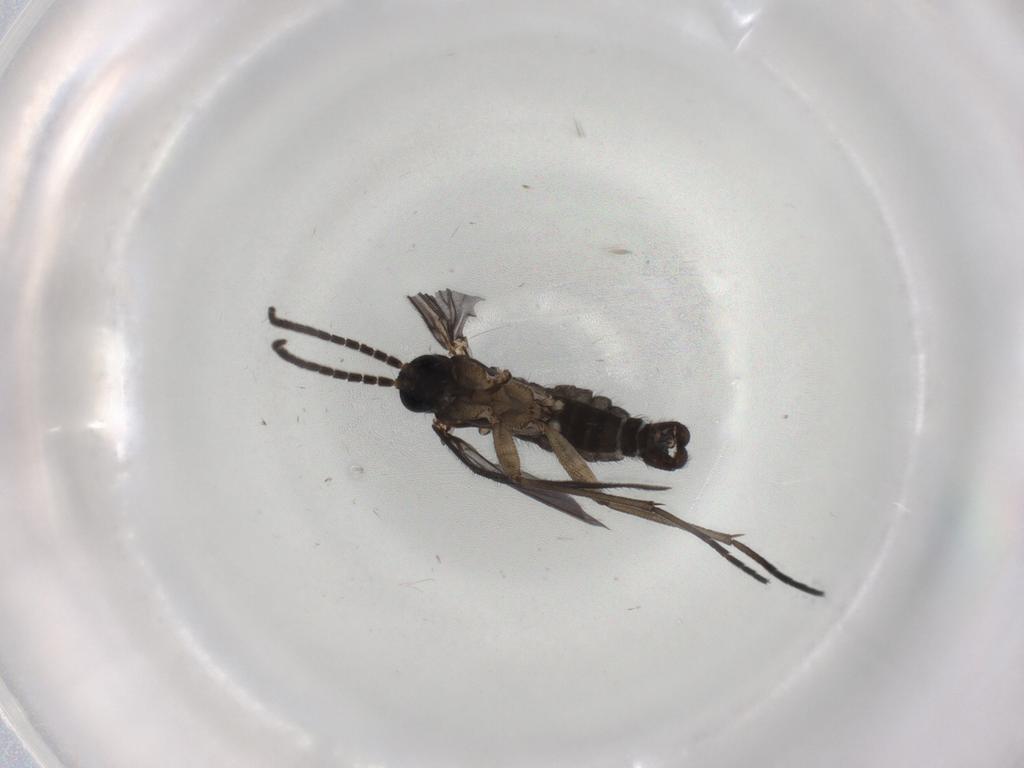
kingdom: Animalia
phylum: Arthropoda
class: Insecta
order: Diptera
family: Sciaridae
